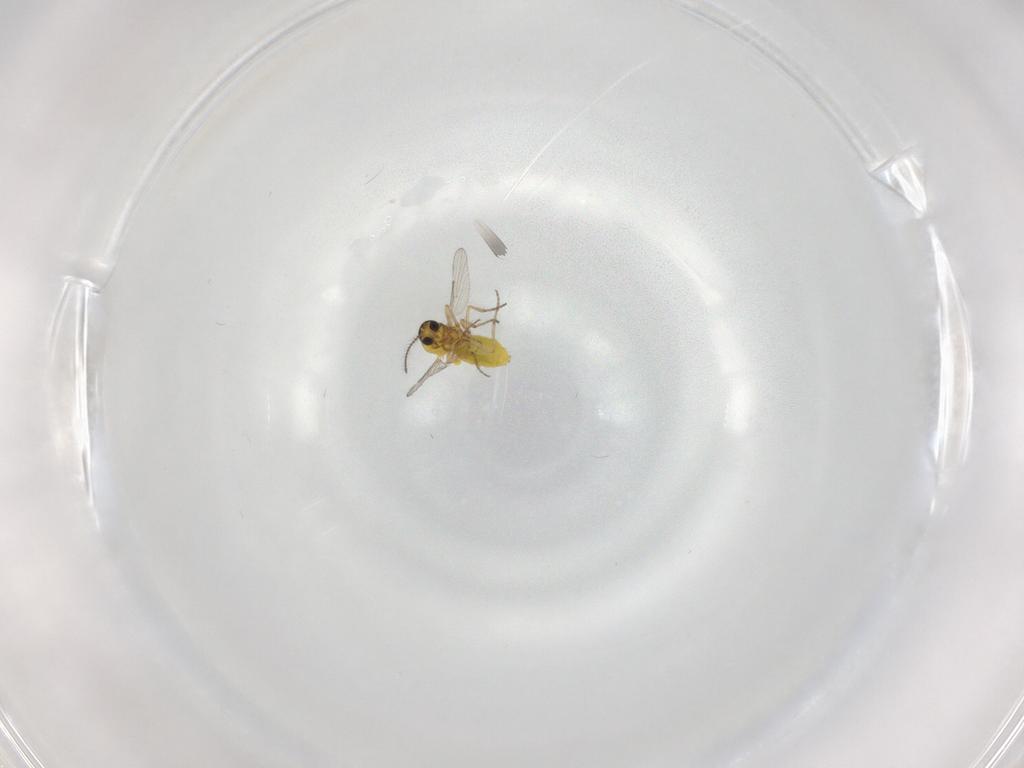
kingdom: Animalia
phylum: Arthropoda
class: Insecta
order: Diptera
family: Ceratopogonidae
